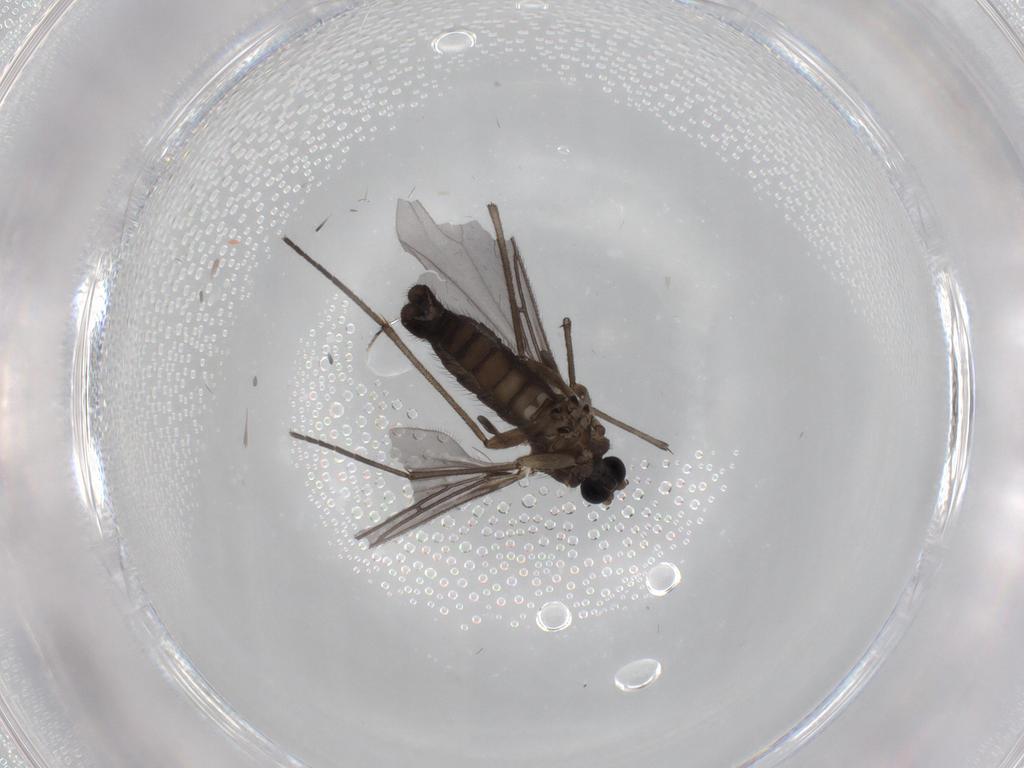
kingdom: Animalia
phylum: Arthropoda
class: Insecta
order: Diptera
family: Sciaridae
